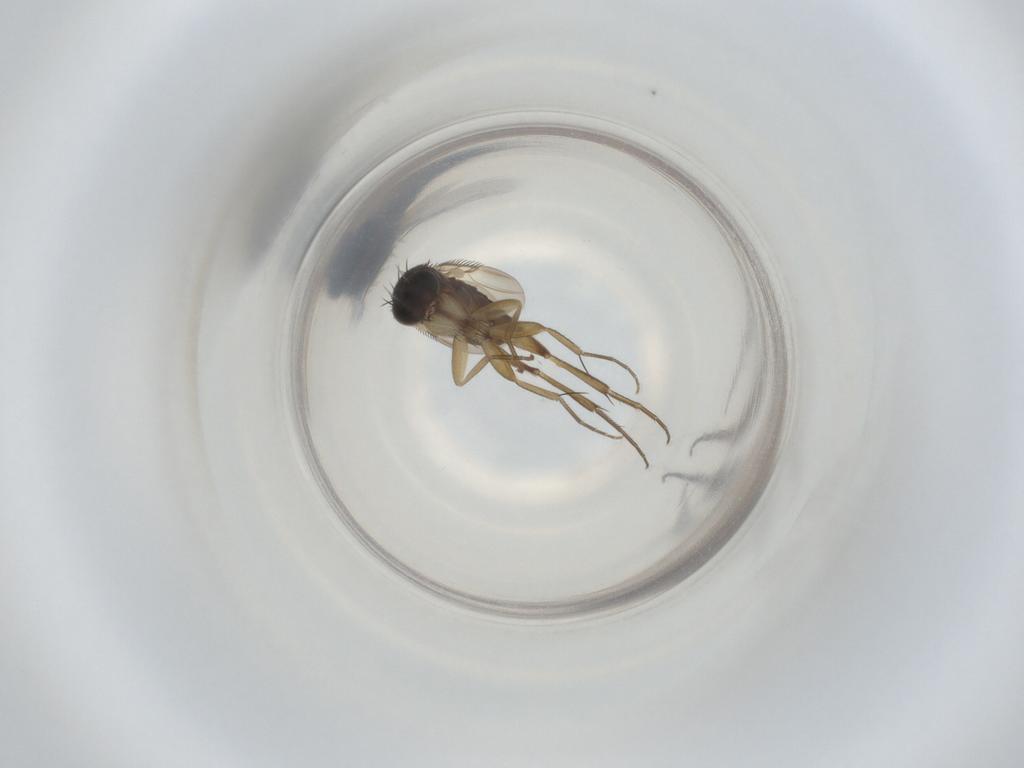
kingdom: Animalia
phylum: Arthropoda
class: Insecta
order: Diptera
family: Phoridae
